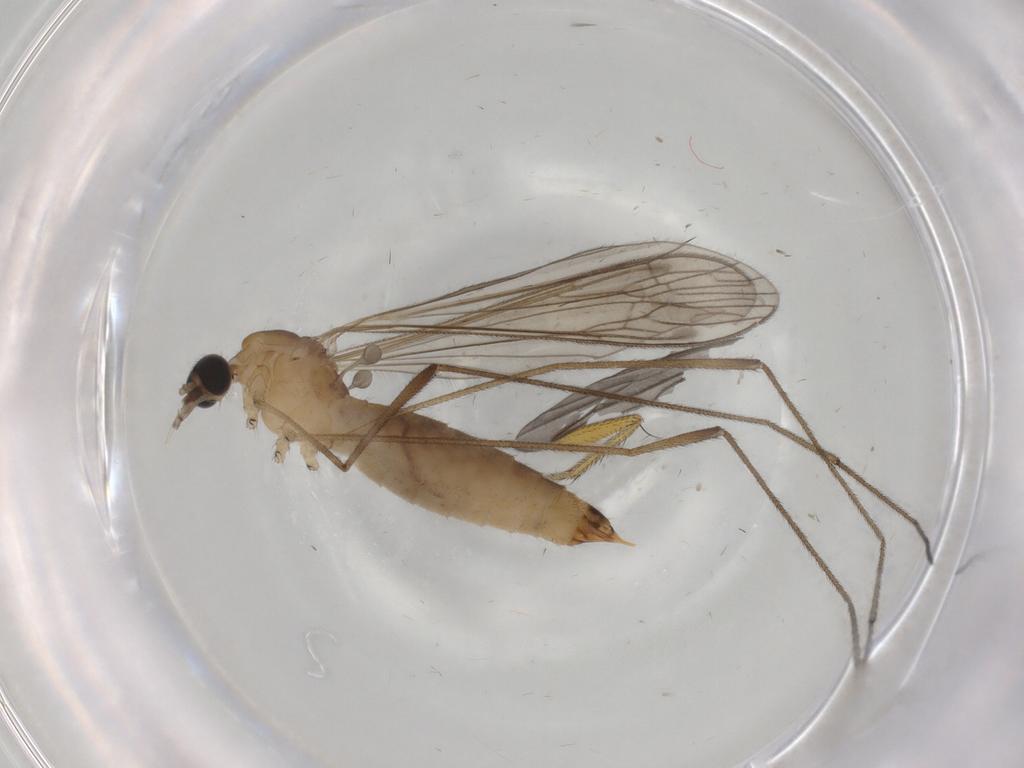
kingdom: Animalia
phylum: Arthropoda
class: Insecta
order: Diptera
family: Limoniidae
